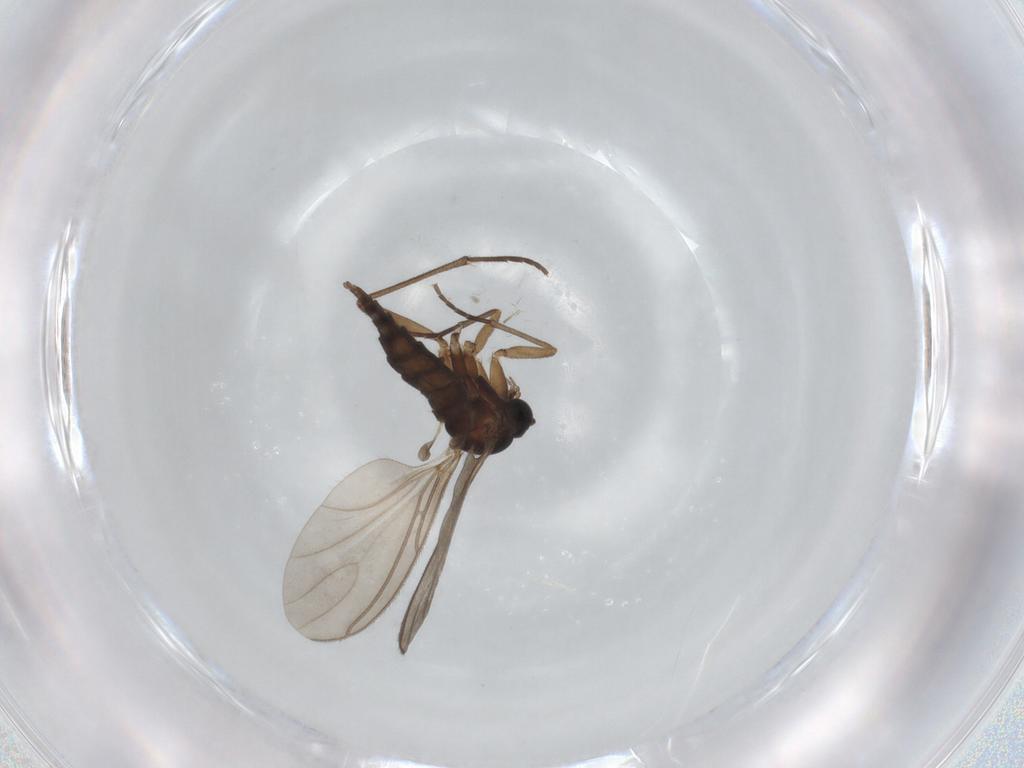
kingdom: Animalia
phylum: Arthropoda
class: Insecta
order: Diptera
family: Sciaridae
